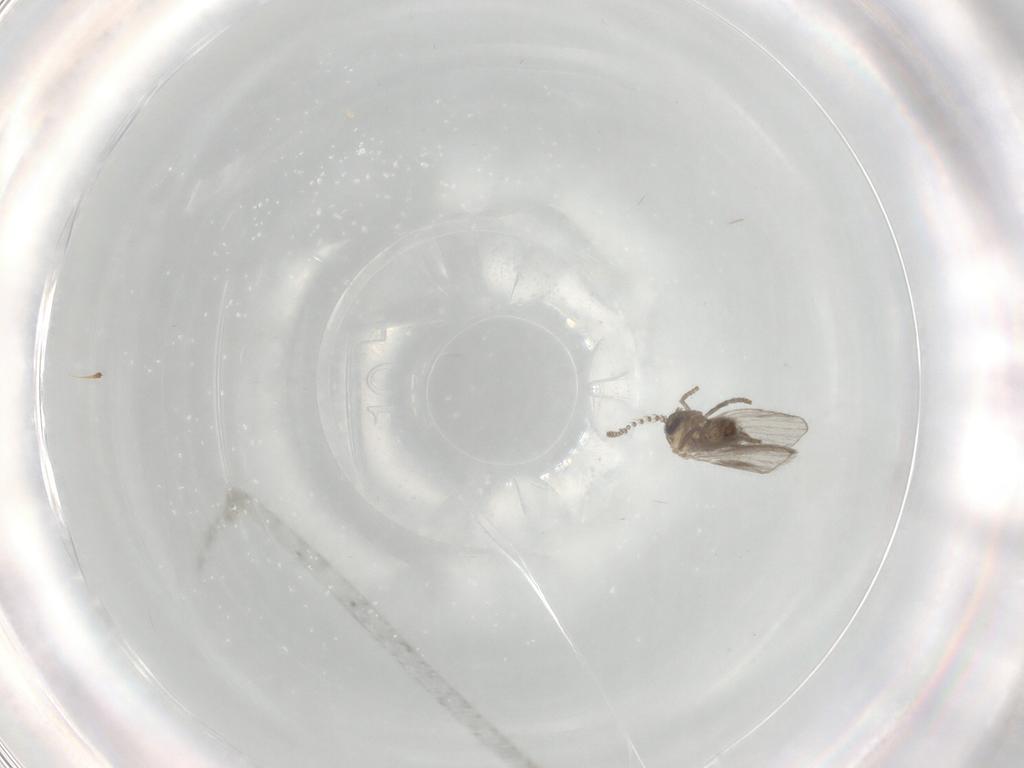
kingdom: Animalia
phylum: Arthropoda
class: Insecta
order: Diptera
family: Psychodidae
